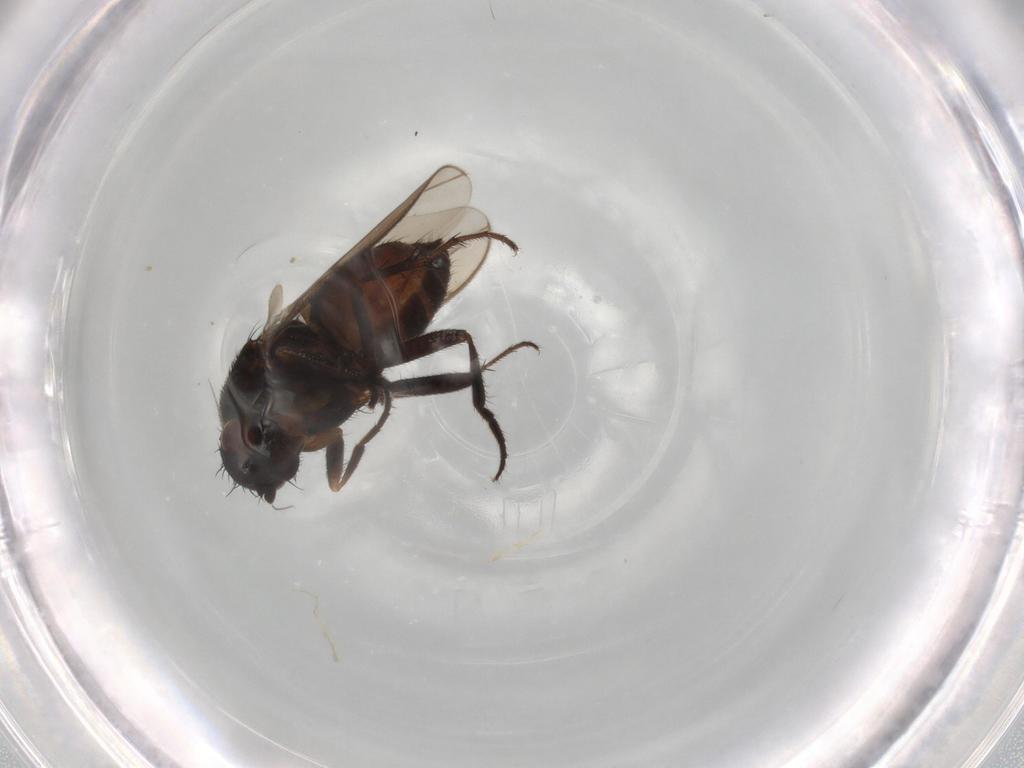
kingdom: Animalia
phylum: Arthropoda
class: Insecta
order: Diptera
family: Sphaeroceridae
